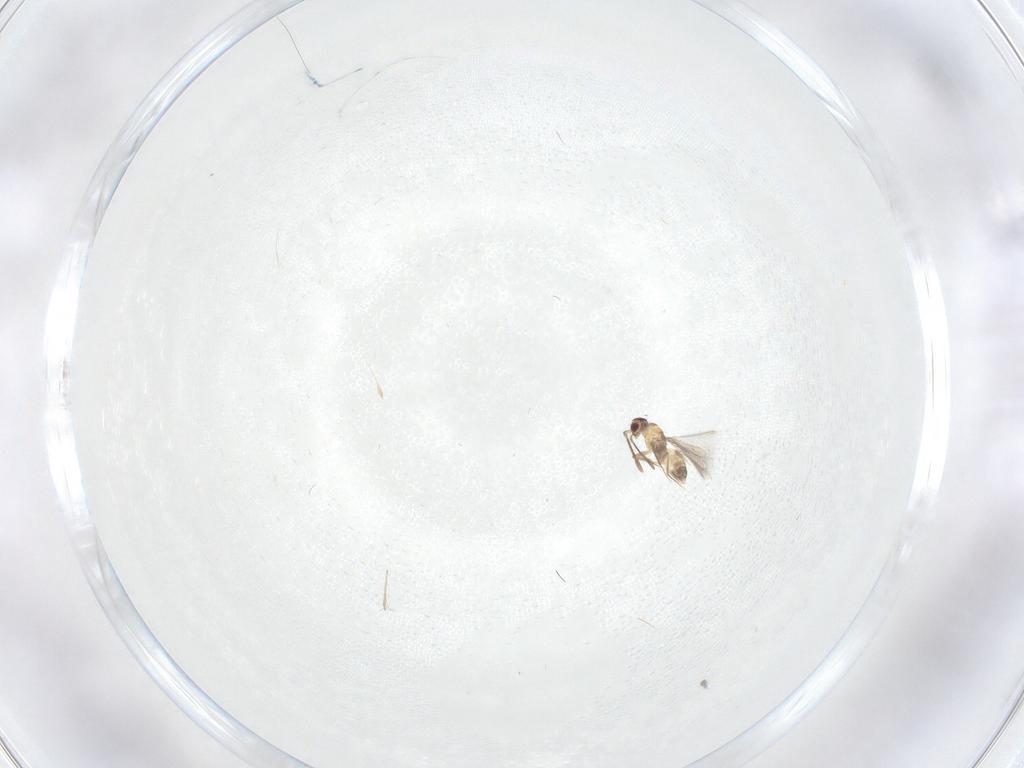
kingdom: Animalia
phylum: Arthropoda
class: Insecta
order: Hymenoptera
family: Mymaridae
